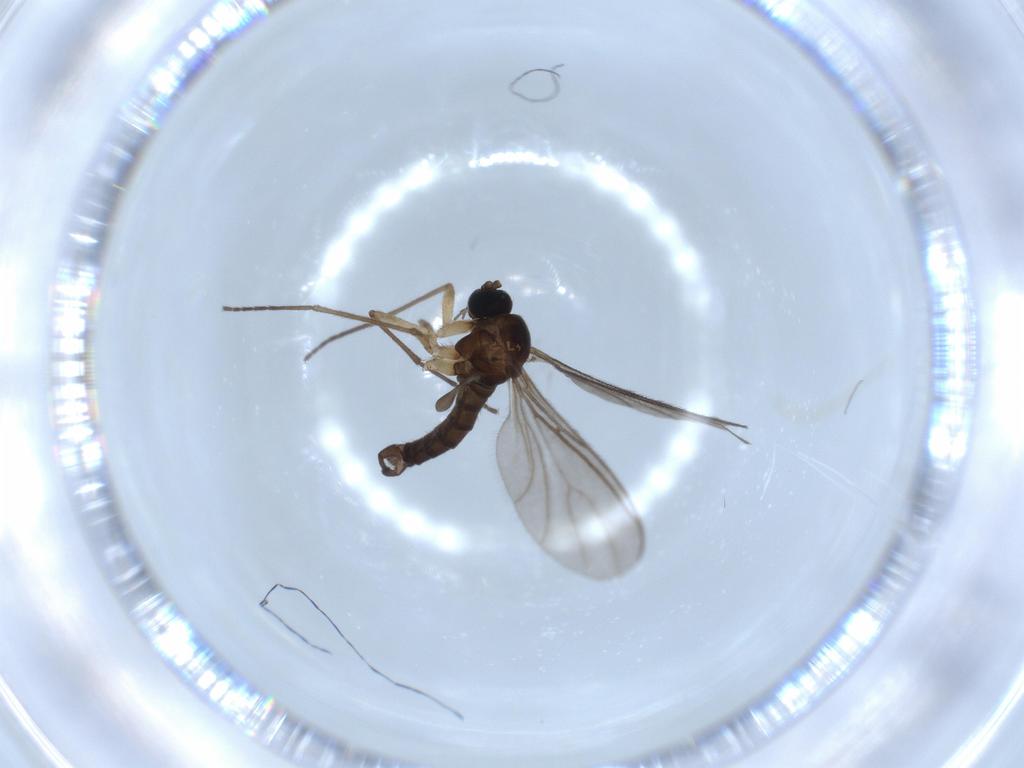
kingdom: Animalia
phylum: Arthropoda
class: Insecta
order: Diptera
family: Sciaridae
